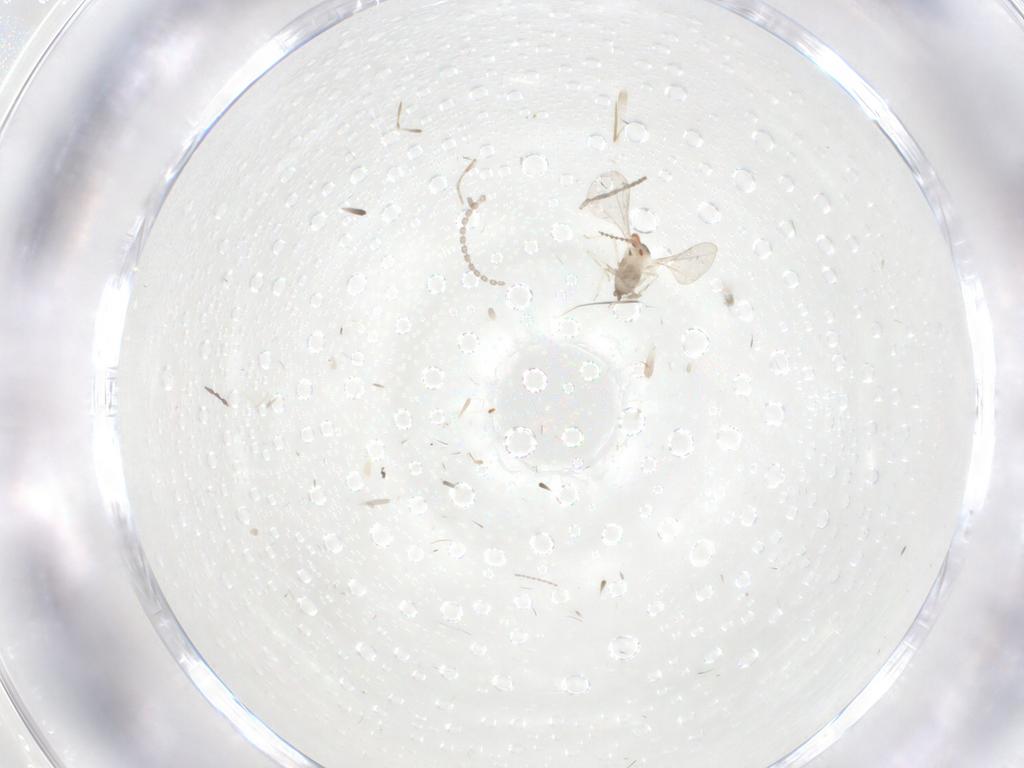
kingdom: Animalia
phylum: Arthropoda
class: Insecta
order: Diptera
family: Cecidomyiidae
